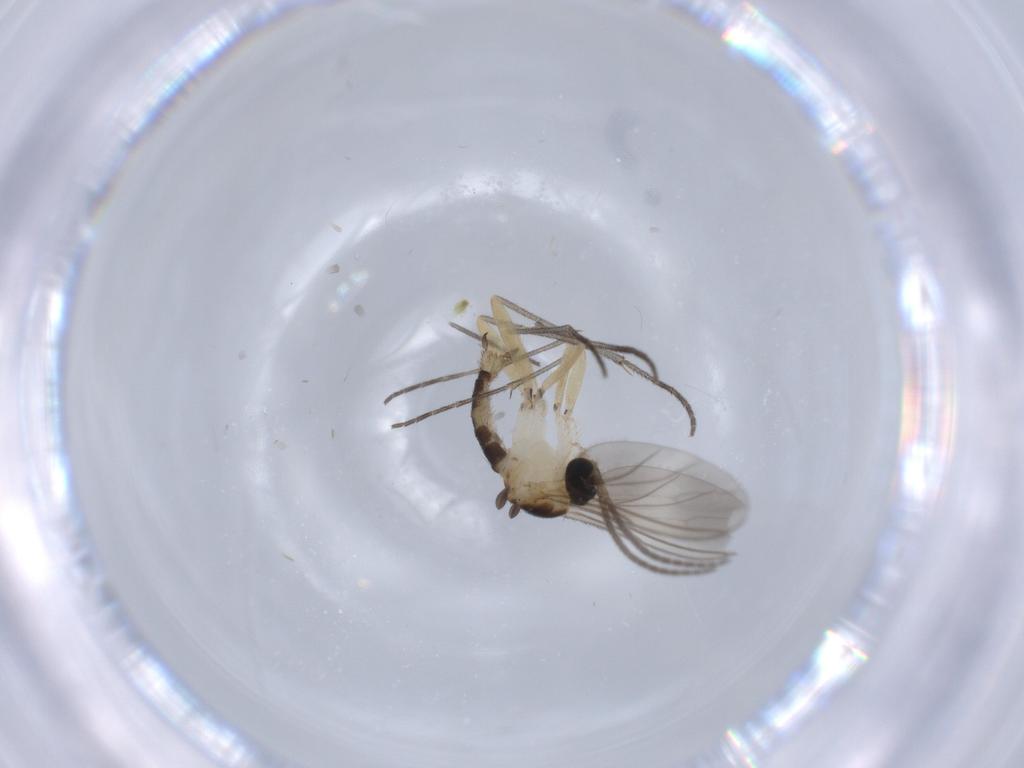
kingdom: Animalia
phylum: Arthropoda
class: Insecta
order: Diptera
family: Sciaridae
